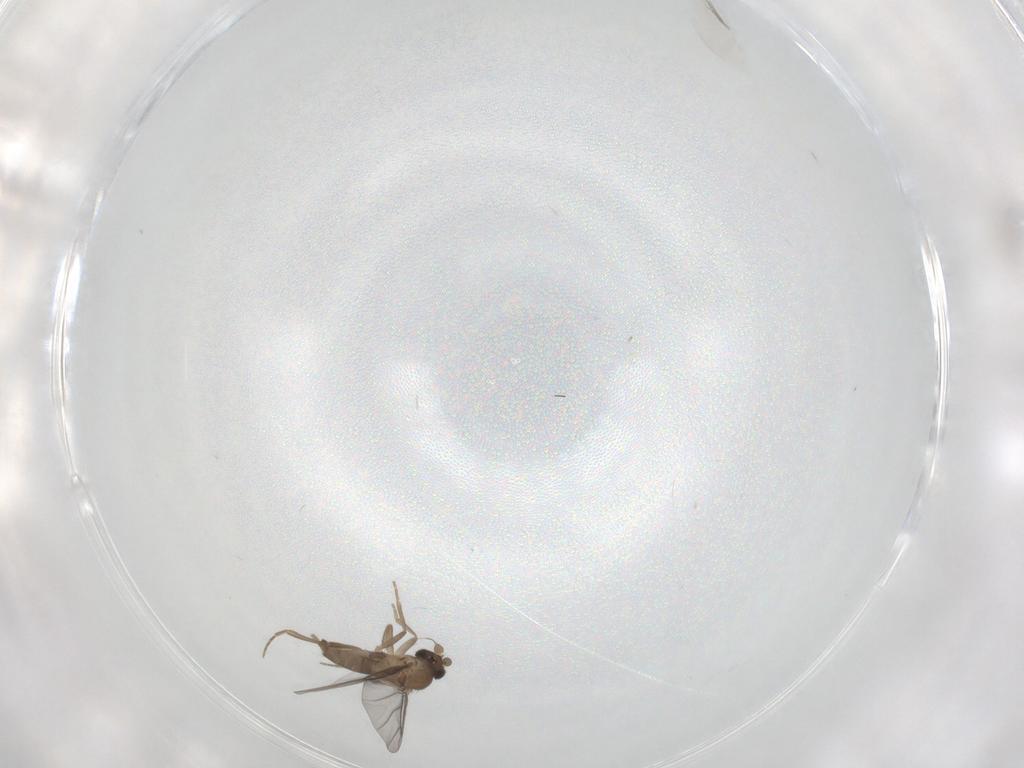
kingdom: Animalia
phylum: Arthropoda
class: Insecta
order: Diptera
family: Ceratopogonidae
